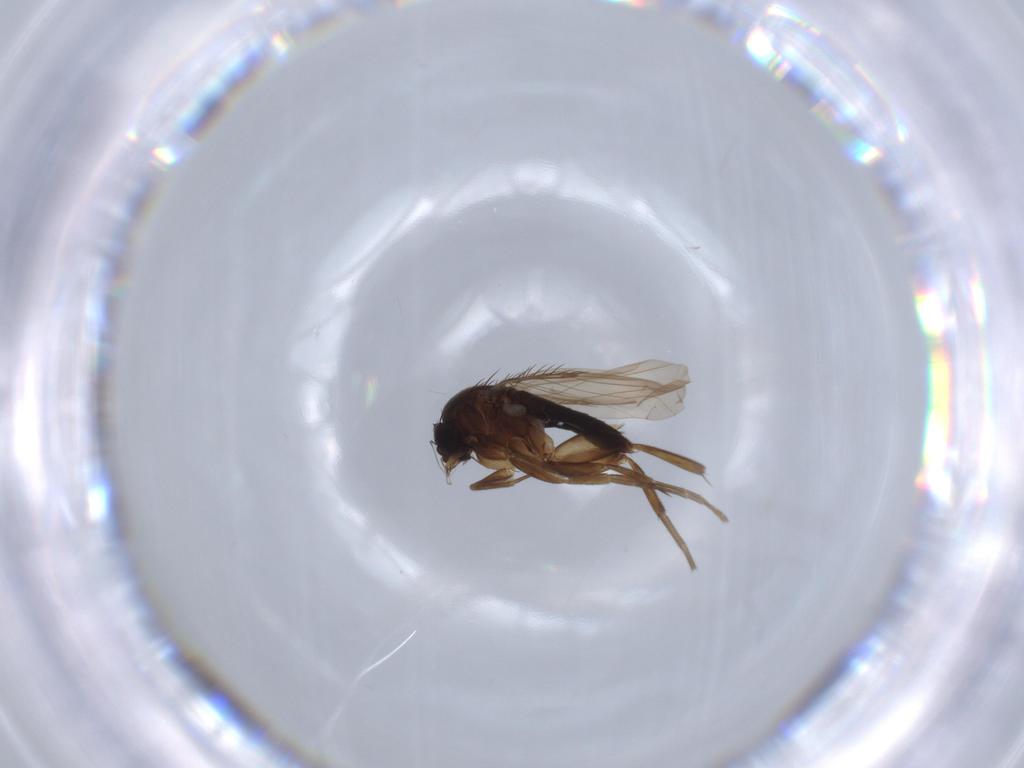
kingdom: Animalia
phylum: Arthropoda
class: Insecta
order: Diptera
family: Phoridae
